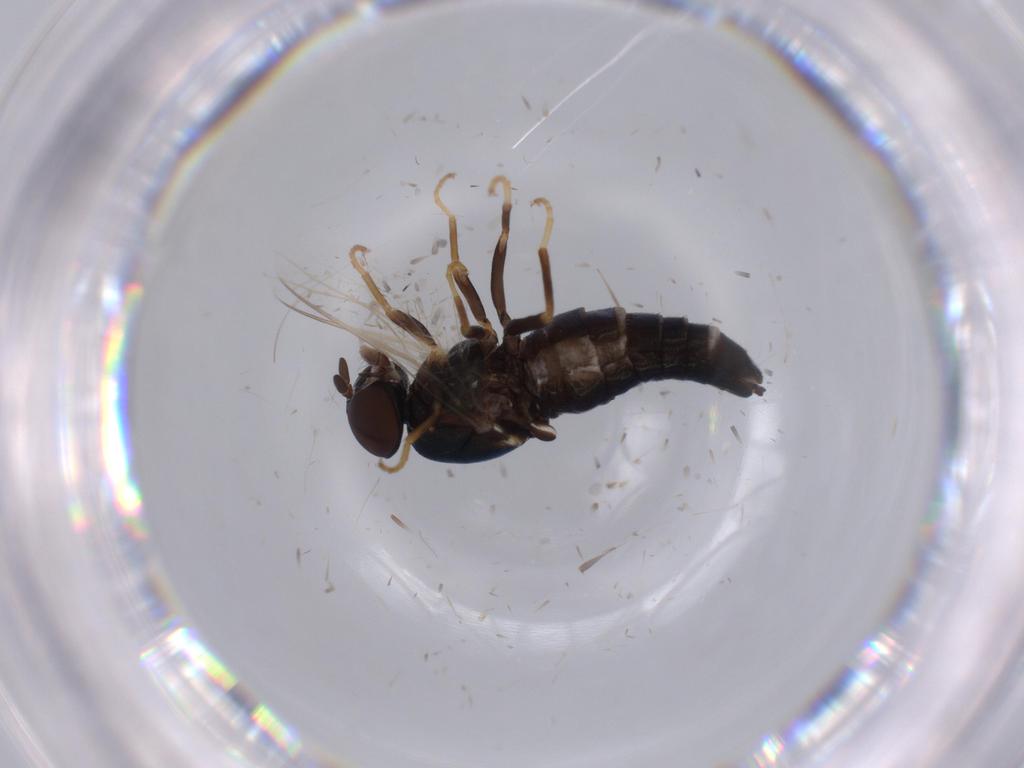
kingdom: Animalia
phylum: Arthropoda
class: Insecta
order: Diptera
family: Scenopinidae
